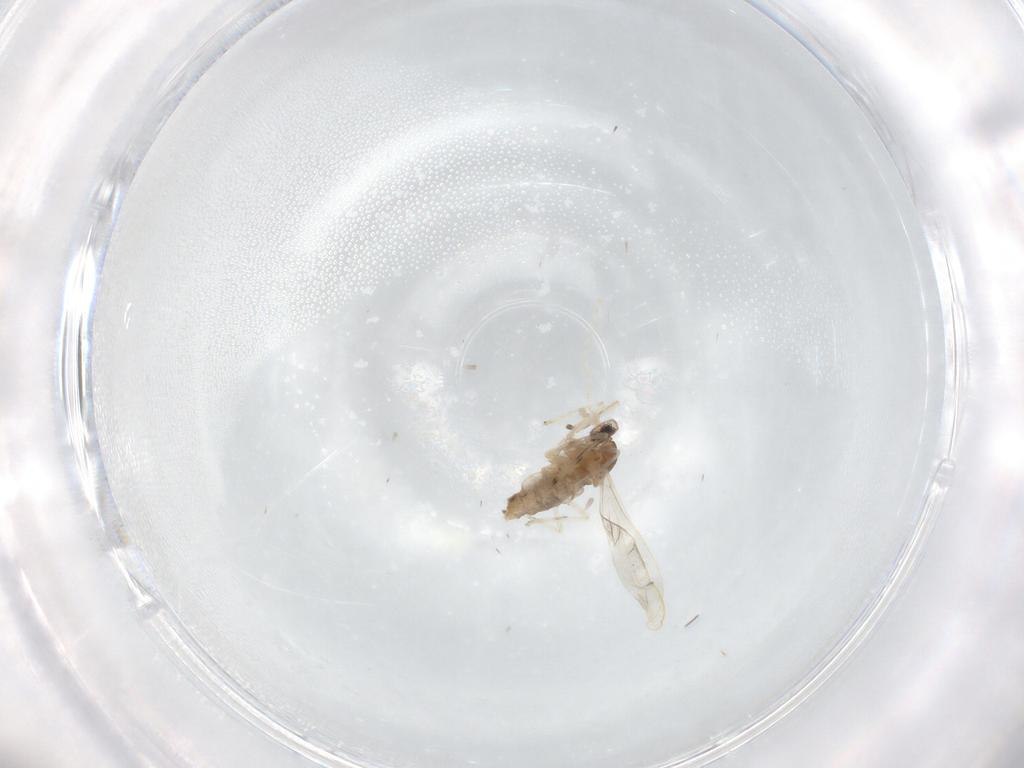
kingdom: Animalia
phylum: Arthropoda
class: Insecta
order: Diptera
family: Cecidomyiidae
